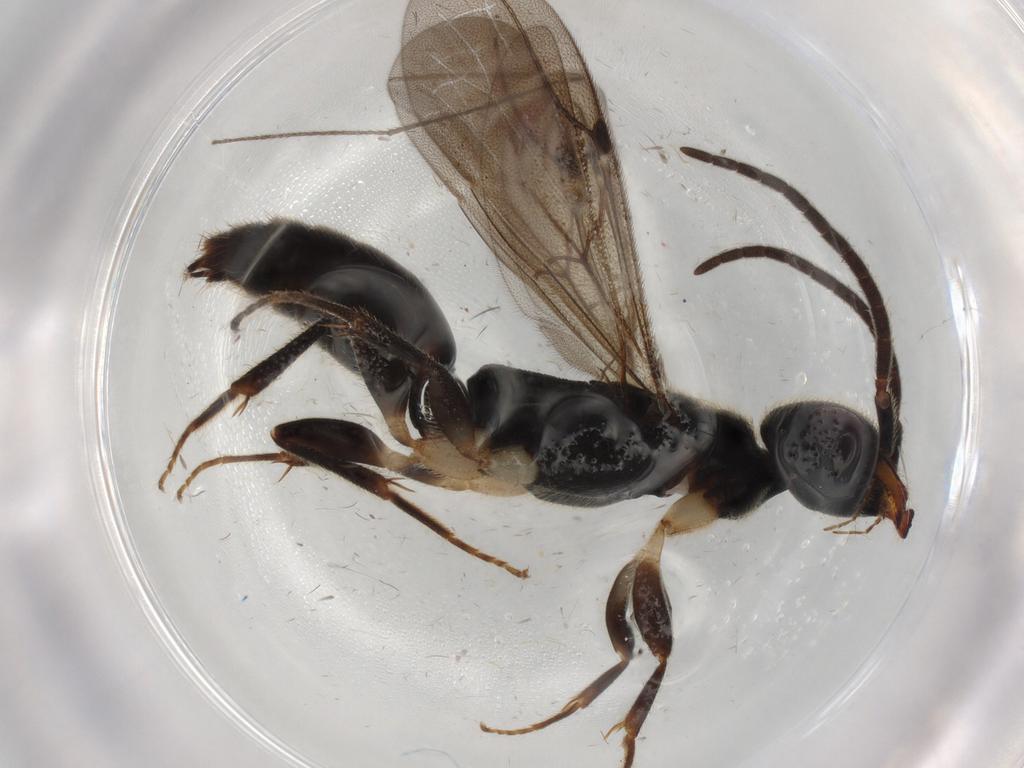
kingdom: Animalia
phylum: Arthropoda
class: Insecta
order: Hymenoptera
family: Bethylidae
